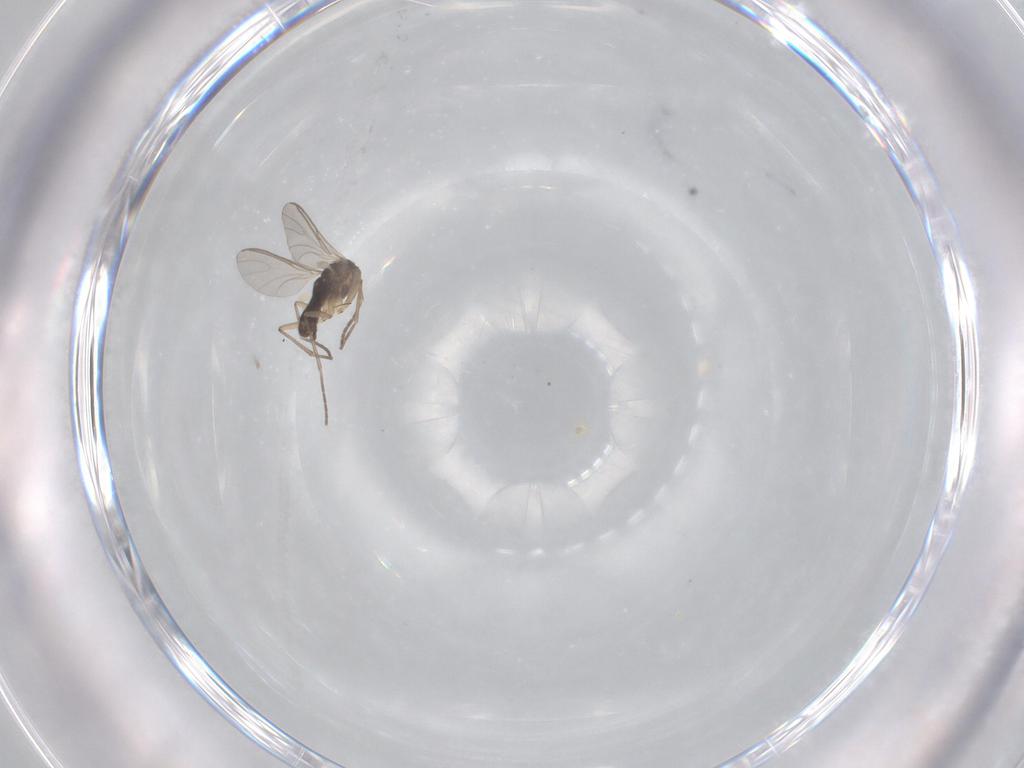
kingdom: Animalia
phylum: Arthropoda
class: Insecta
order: Diptera
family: Sciaridae
